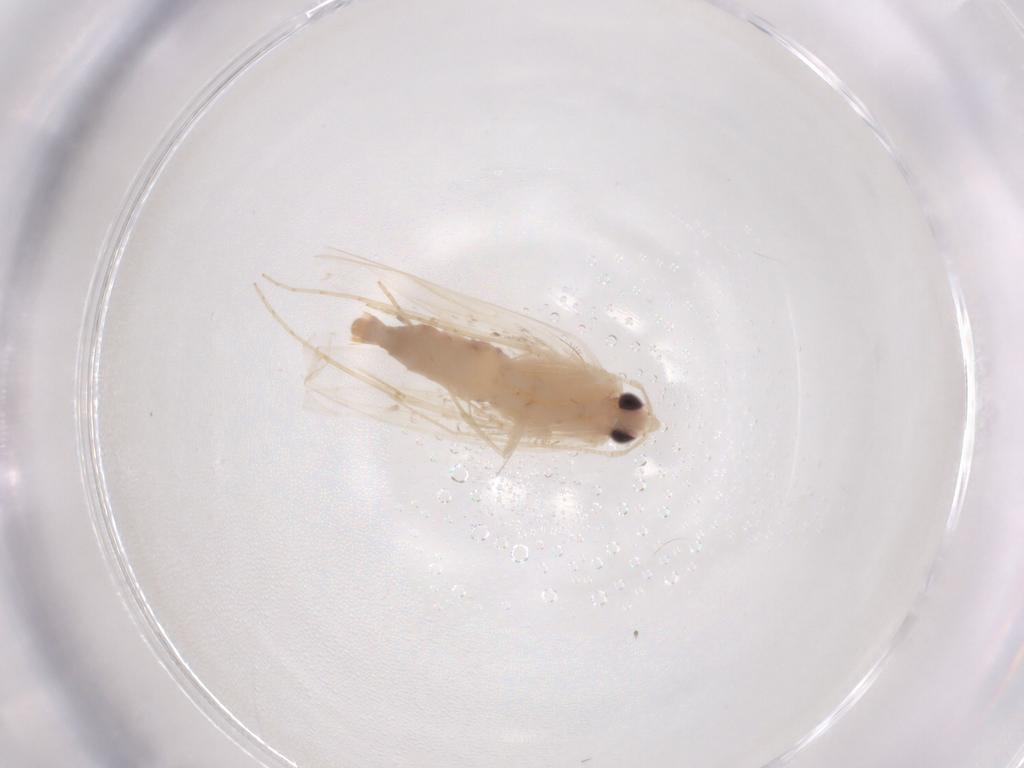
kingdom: Animalia
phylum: Arthropoda
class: Insecta
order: Lepidoptera
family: Lyonetiidae
